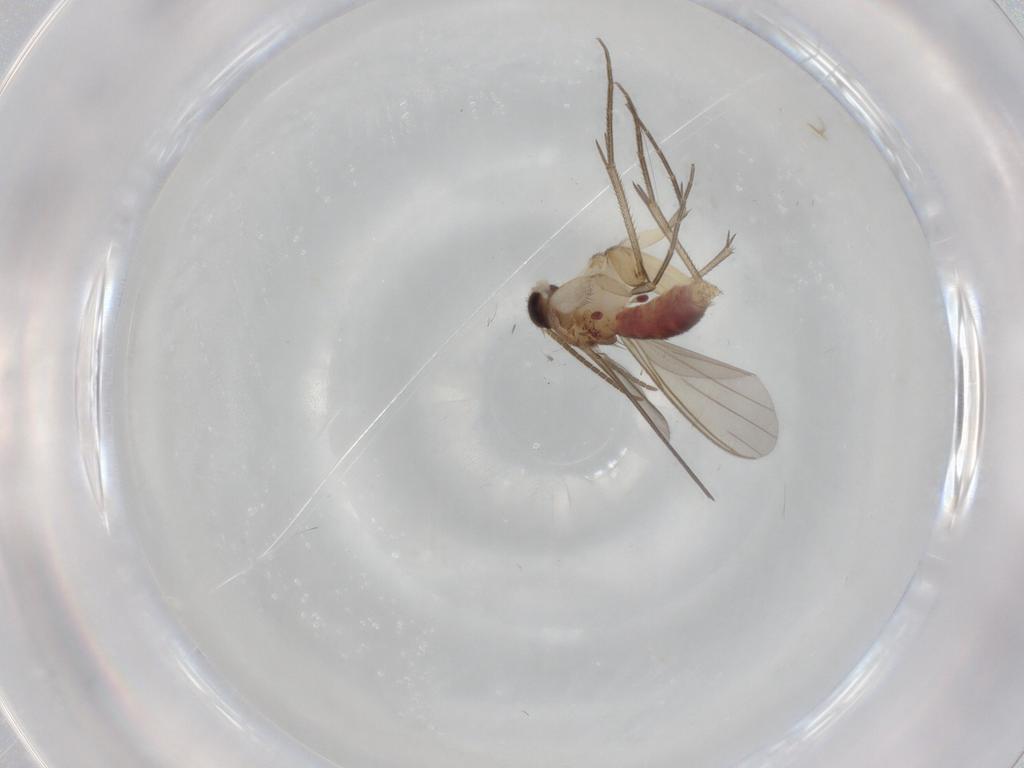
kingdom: Animalia
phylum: Arthropoda
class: Insecta
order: Diptera
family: Mycetophilidae
